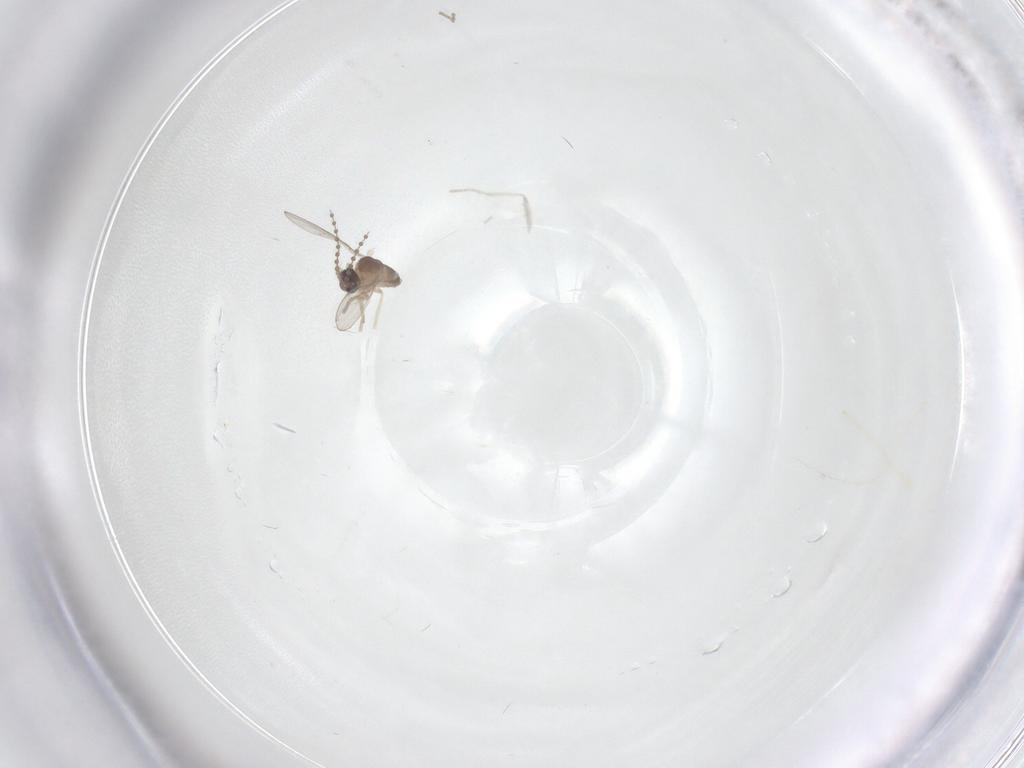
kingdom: Animalia
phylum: Arthropoda
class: Insecta
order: Diptera
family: Cecidomyiidae
